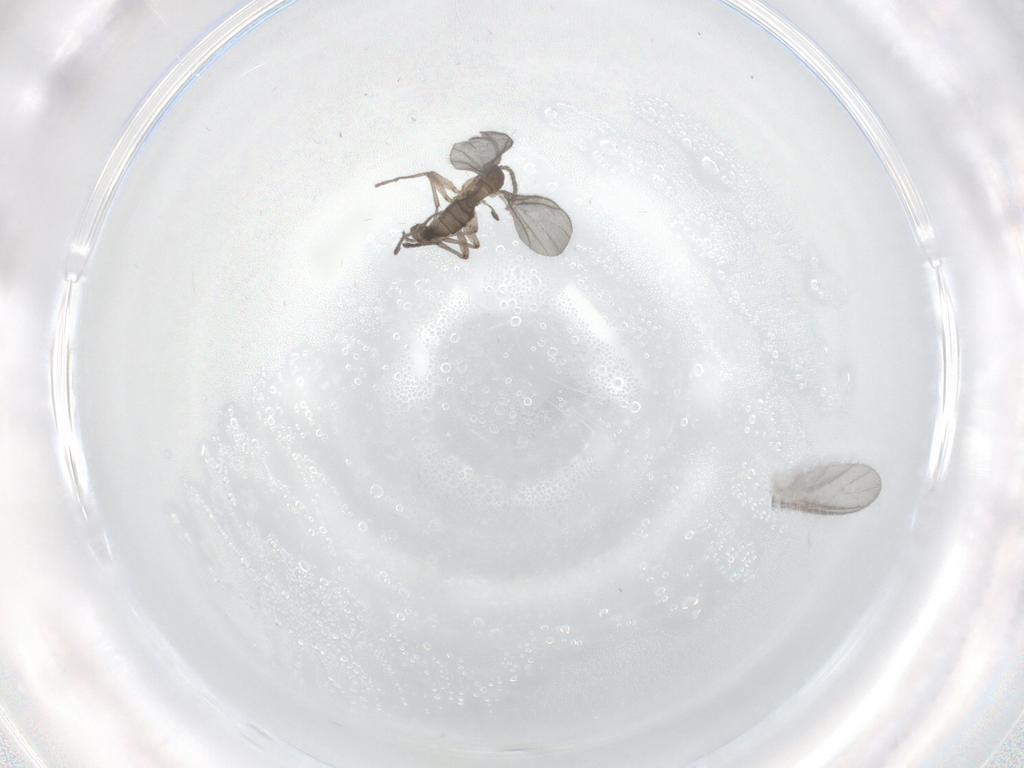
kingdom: Animalia
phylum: Arthropoda
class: Insecta
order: Diptera
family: Sciaridae
